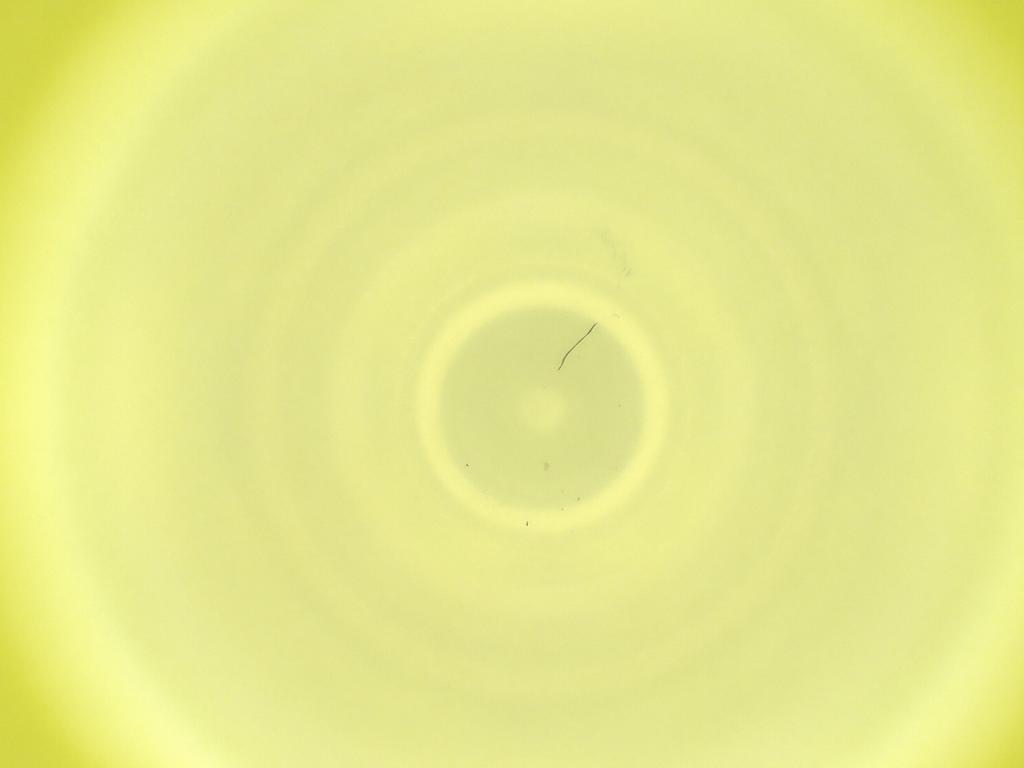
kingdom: Animalia
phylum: Arthropoda
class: Insecta
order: Diptera
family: Cecidomyiidae
